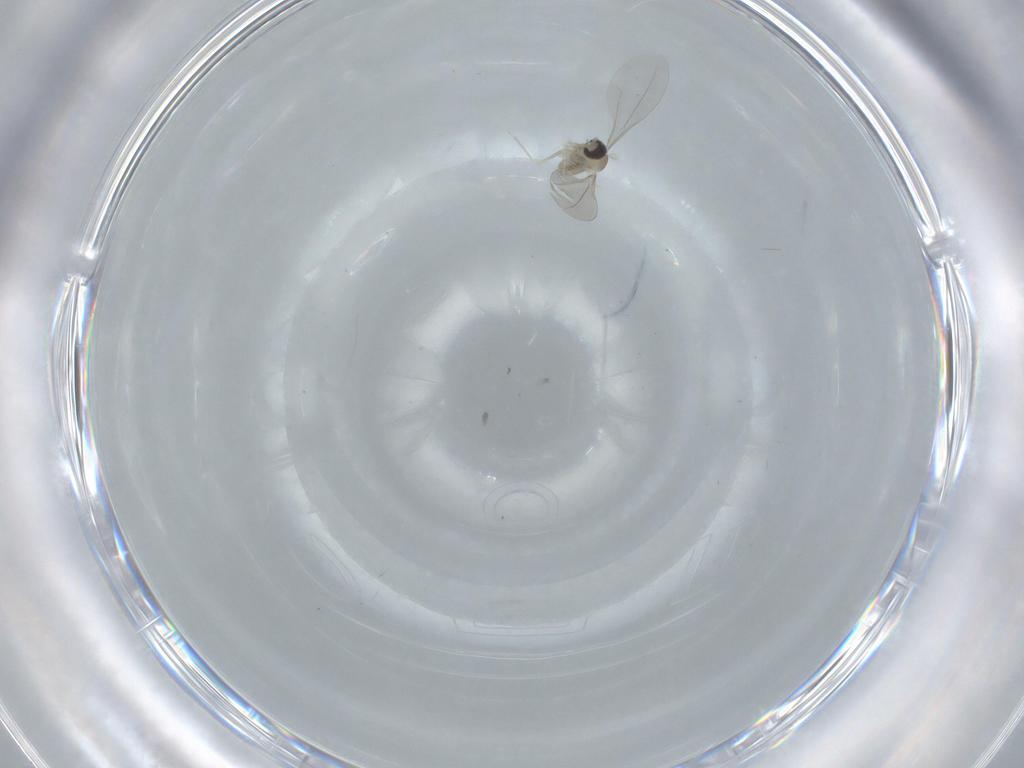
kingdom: Animalia
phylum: Arthropoda
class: Insecta
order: Diptera
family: Cecidomyiidae
